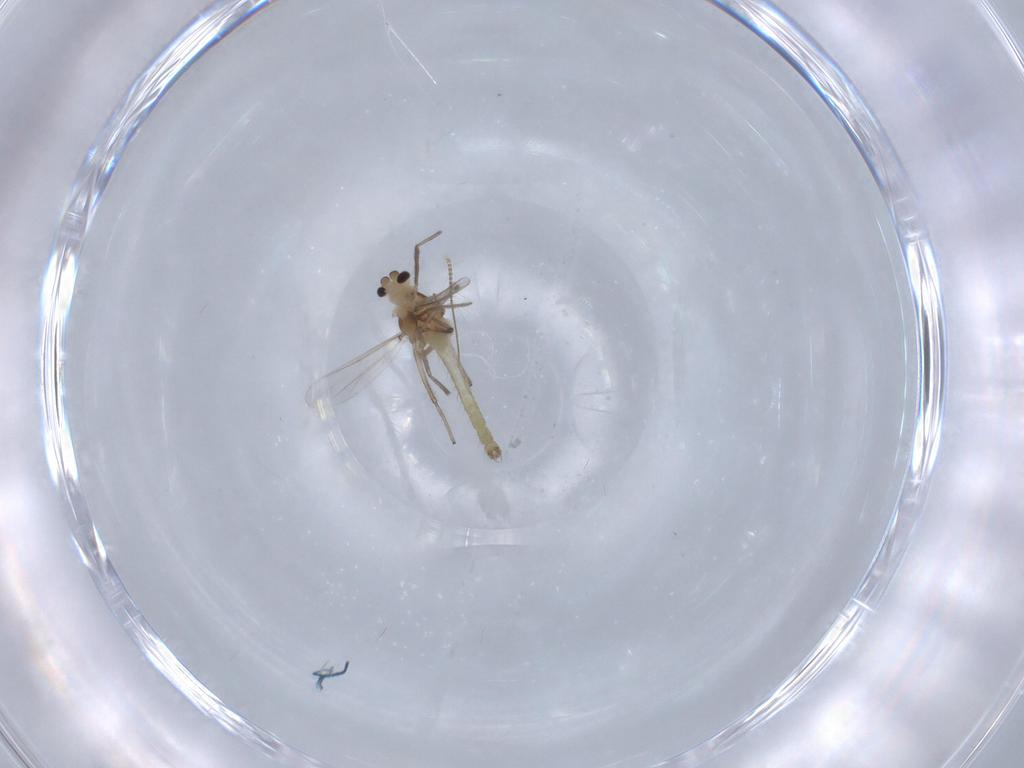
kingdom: Animalia
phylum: Arthropoda
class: Insecta
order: Diptera
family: Chironomidae
